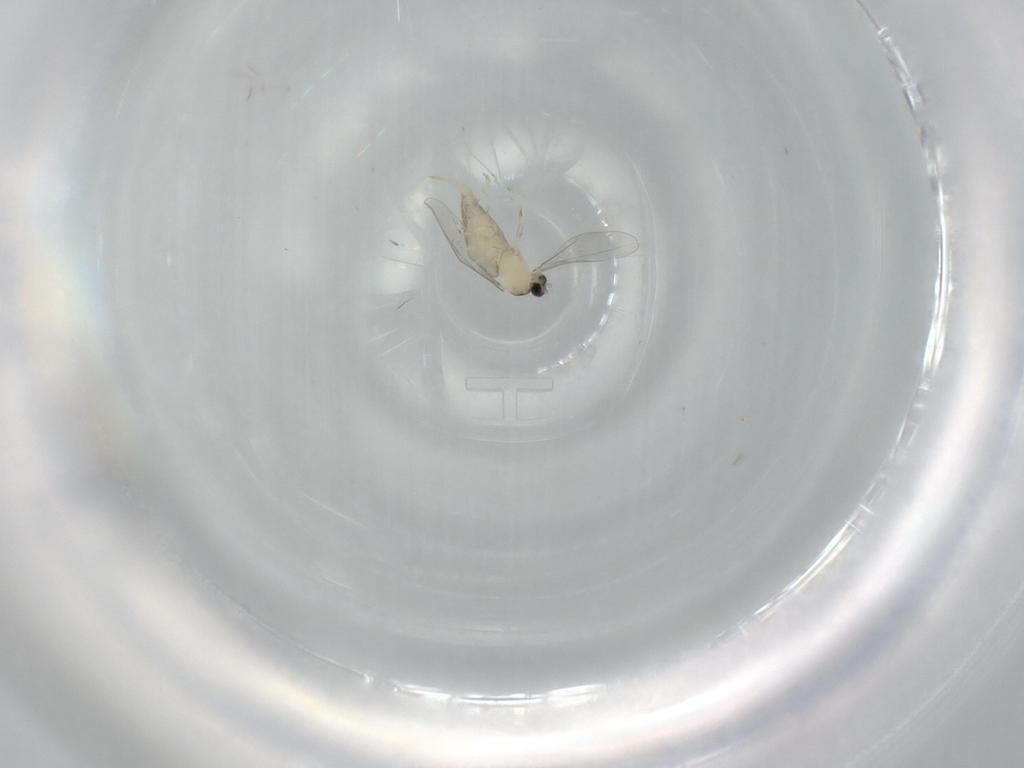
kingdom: Animalia
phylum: Arthropoda
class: Insecta
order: Diptera
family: Cecidomyiidae
